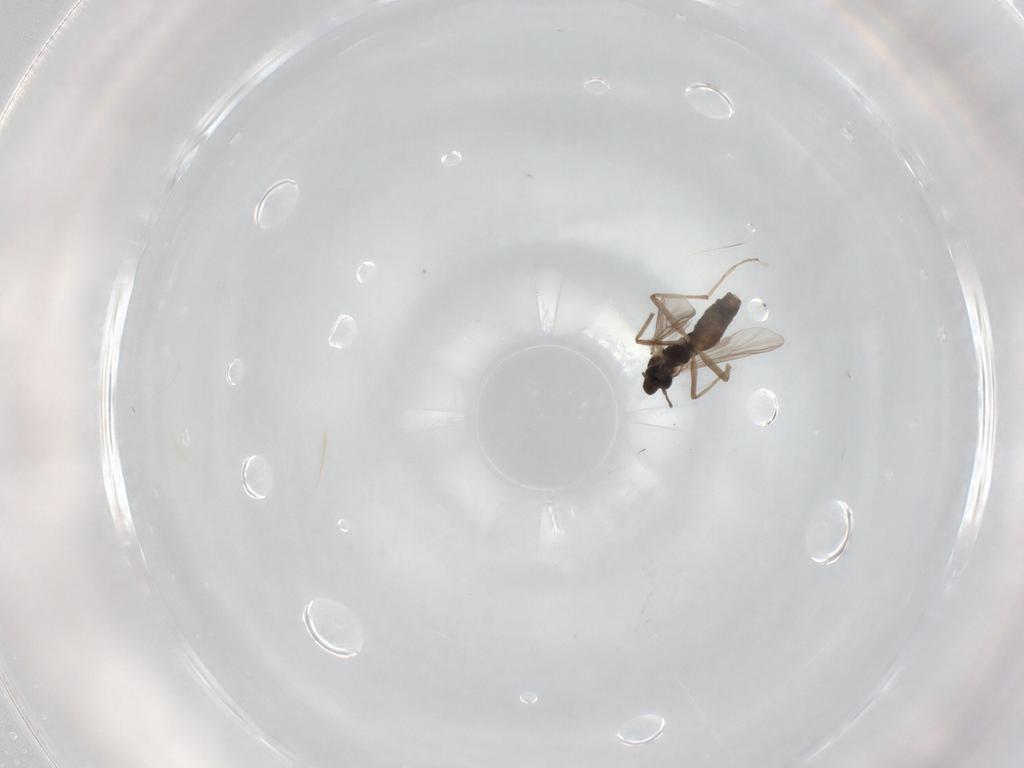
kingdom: Animalia
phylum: Arthropoda
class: Insecta
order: Diptera
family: Chironomidae
